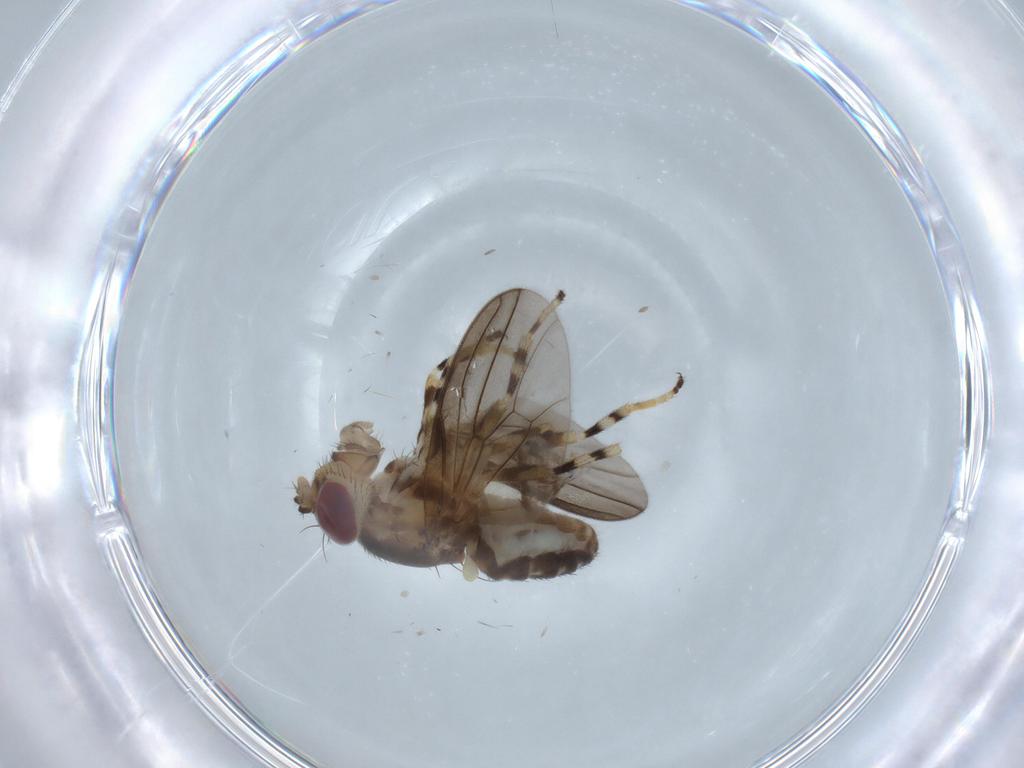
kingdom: Animalia
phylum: Arthropoda
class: Insecta
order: Diptera
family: Periscelididae
